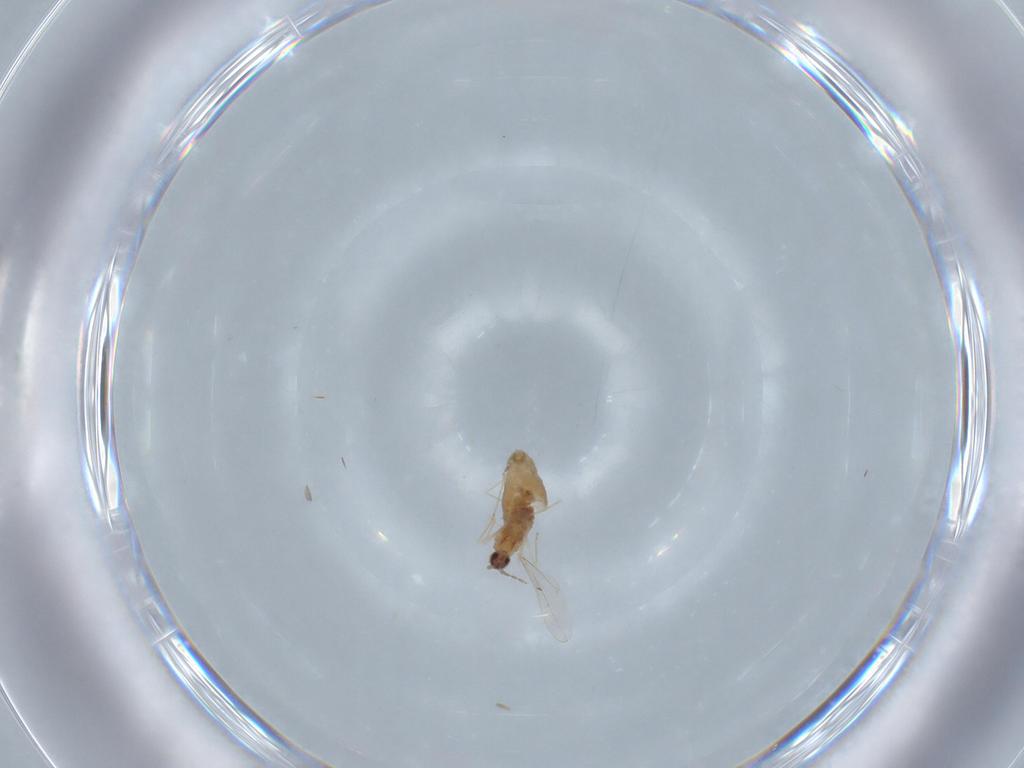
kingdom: Animalia
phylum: Arthropoda
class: Insecta
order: Diptera
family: Cecidomyiidae
